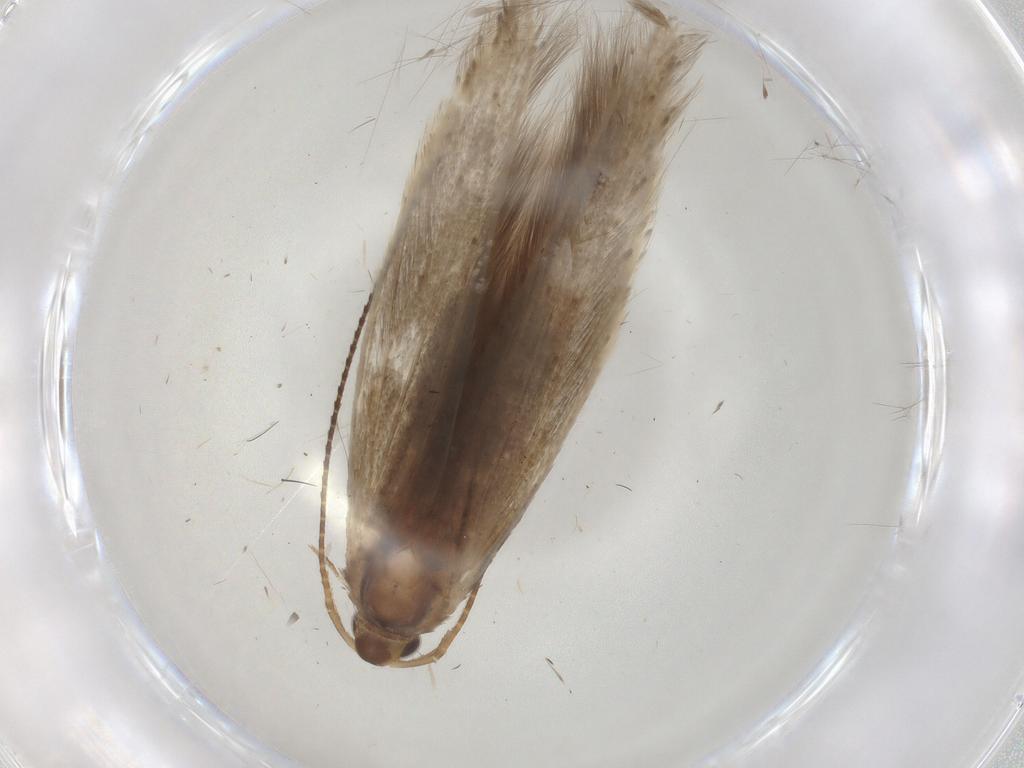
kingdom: Animalia
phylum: Arthropoda
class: Insecta
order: Lepidoptera
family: Coleophoridae
